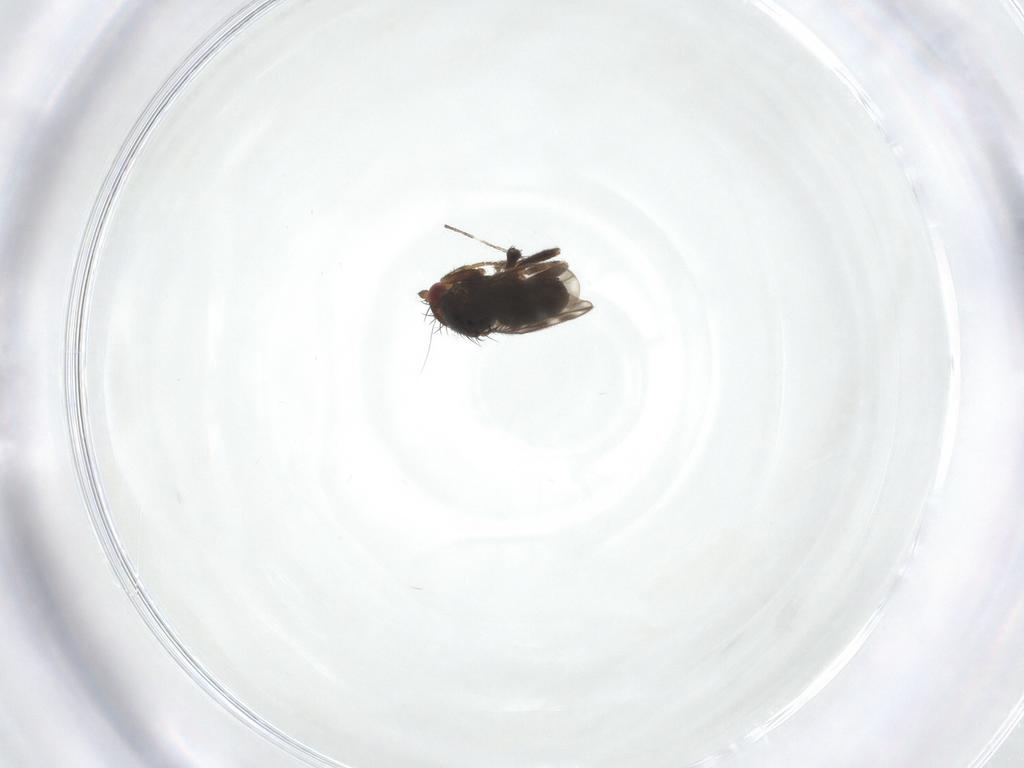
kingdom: Animalia
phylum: Arthropoda
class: Insecta
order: Diptera
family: Sphaeroceridae
